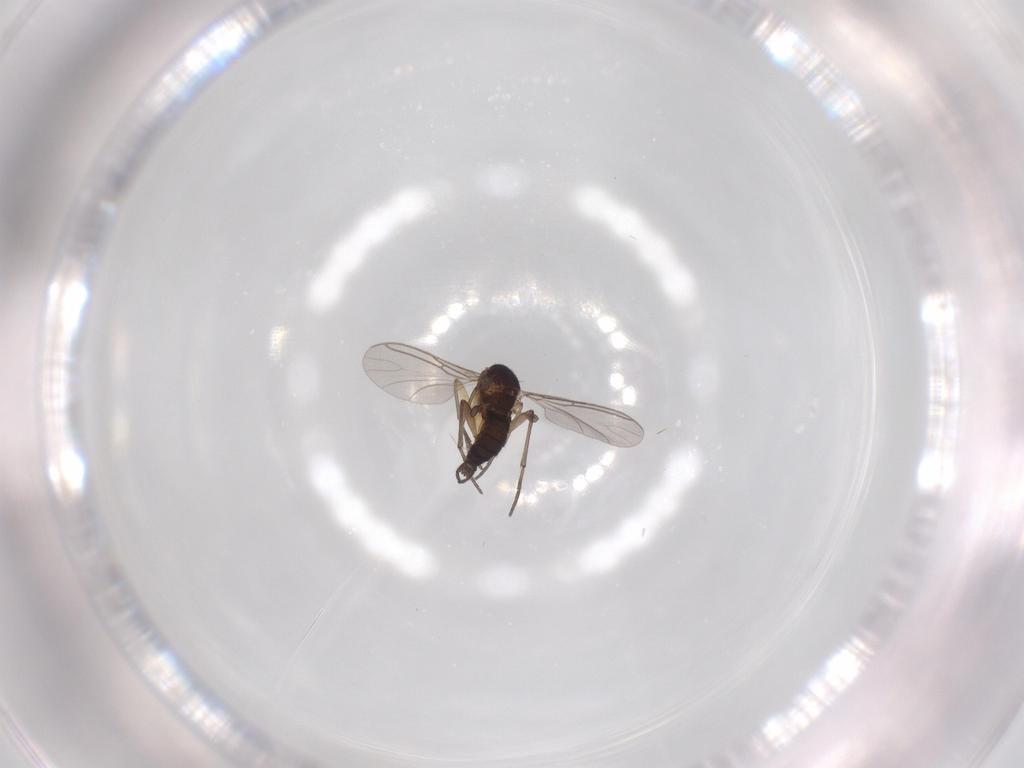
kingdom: Animalia
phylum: Arthropoda
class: Insecta
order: Diptera
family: Sciaridae
